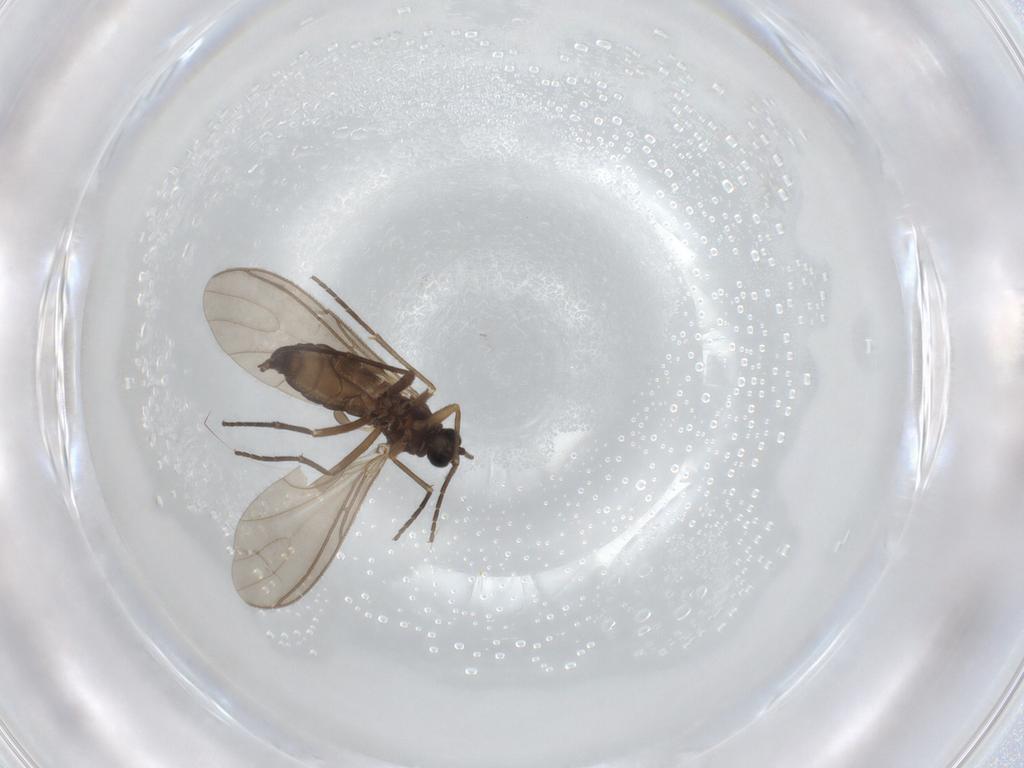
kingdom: Animalia
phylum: Arthropoda
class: Insecta
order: Diptera
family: Sciaridae
